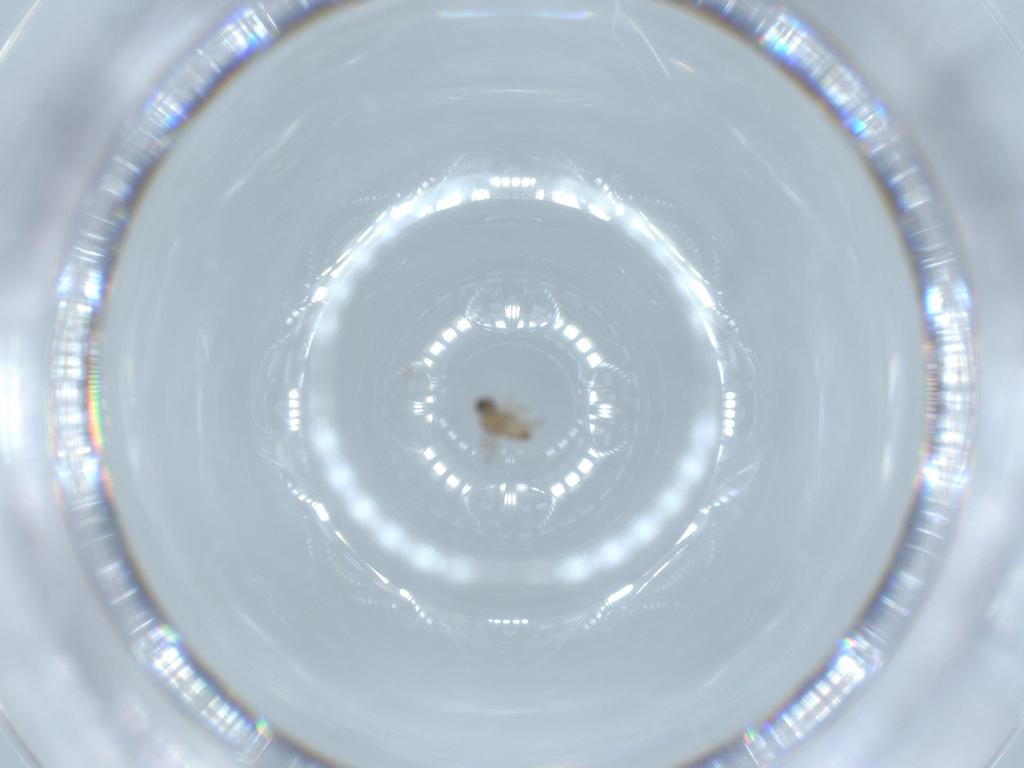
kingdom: Animalia
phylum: Arthropoda
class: Insecta
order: Diptera
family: Cecidomyiidae
